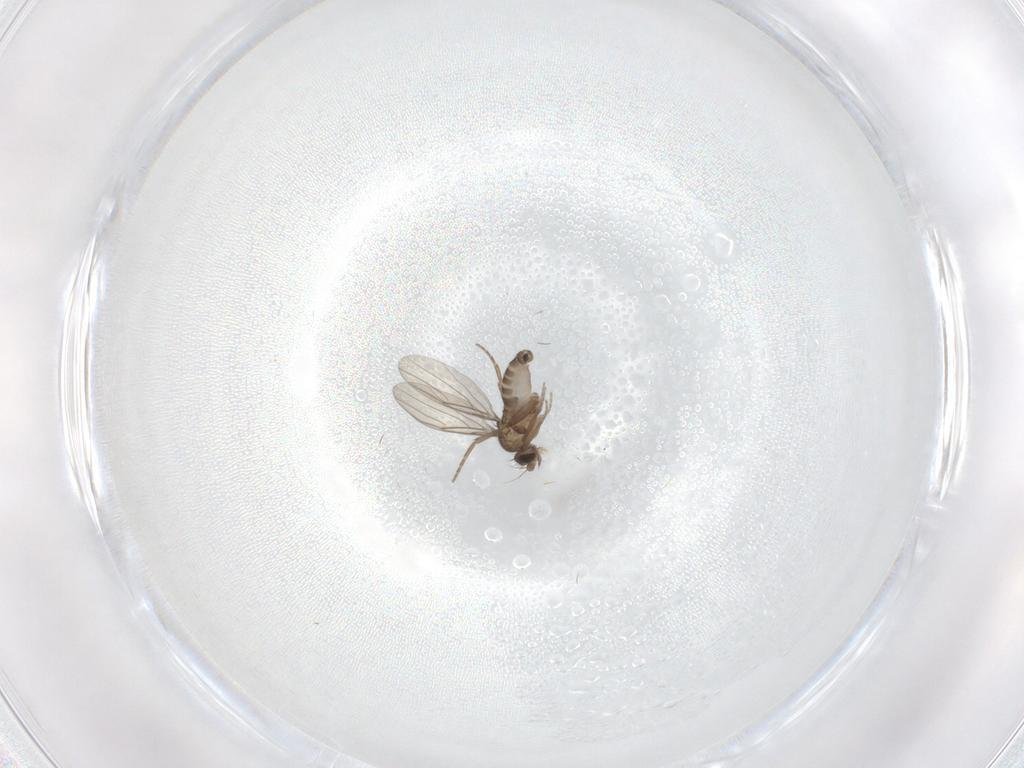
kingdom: Animalia
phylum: Arthropoda
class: Insecta
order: Diptera
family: Phoridae
